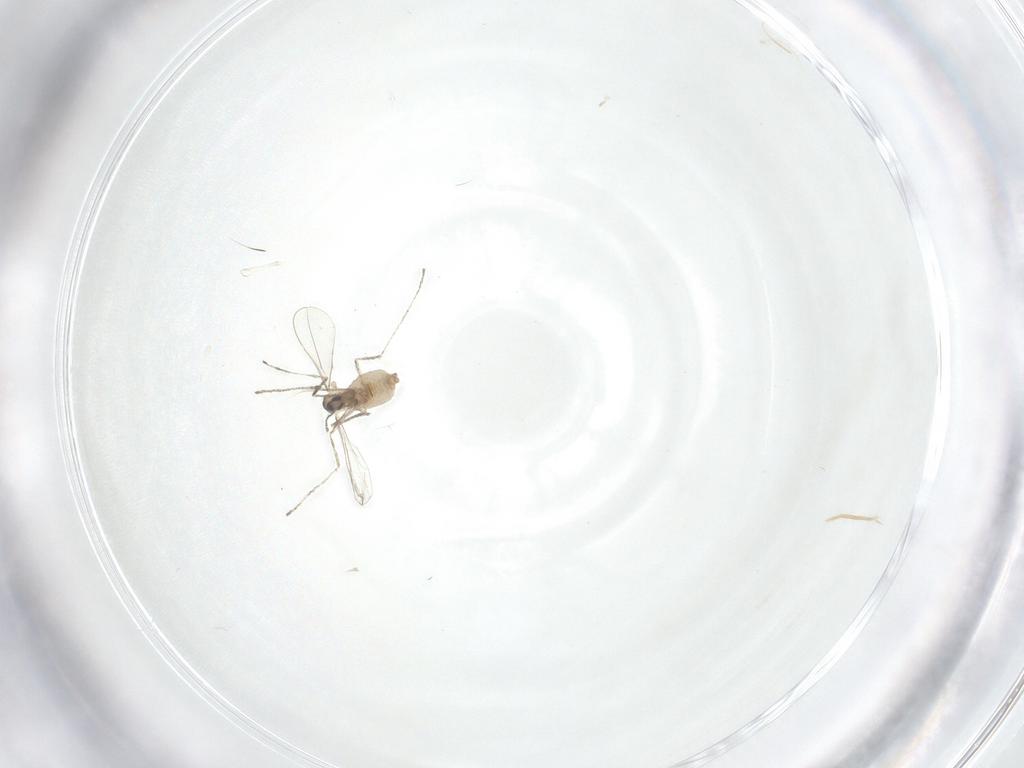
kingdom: Animalia
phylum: Arthropoda
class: Insecta
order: Diptera
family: Cecidomyiidae
